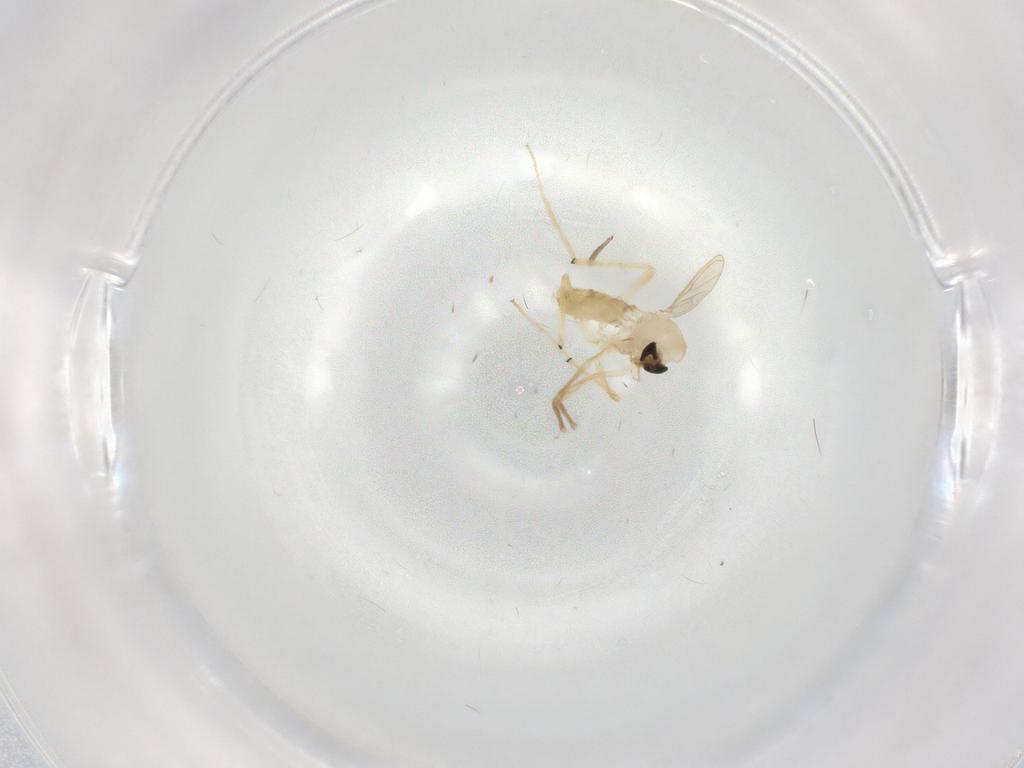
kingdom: Animalia
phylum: Arthropoda
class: Insecta
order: Diptera
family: Chironomidae
